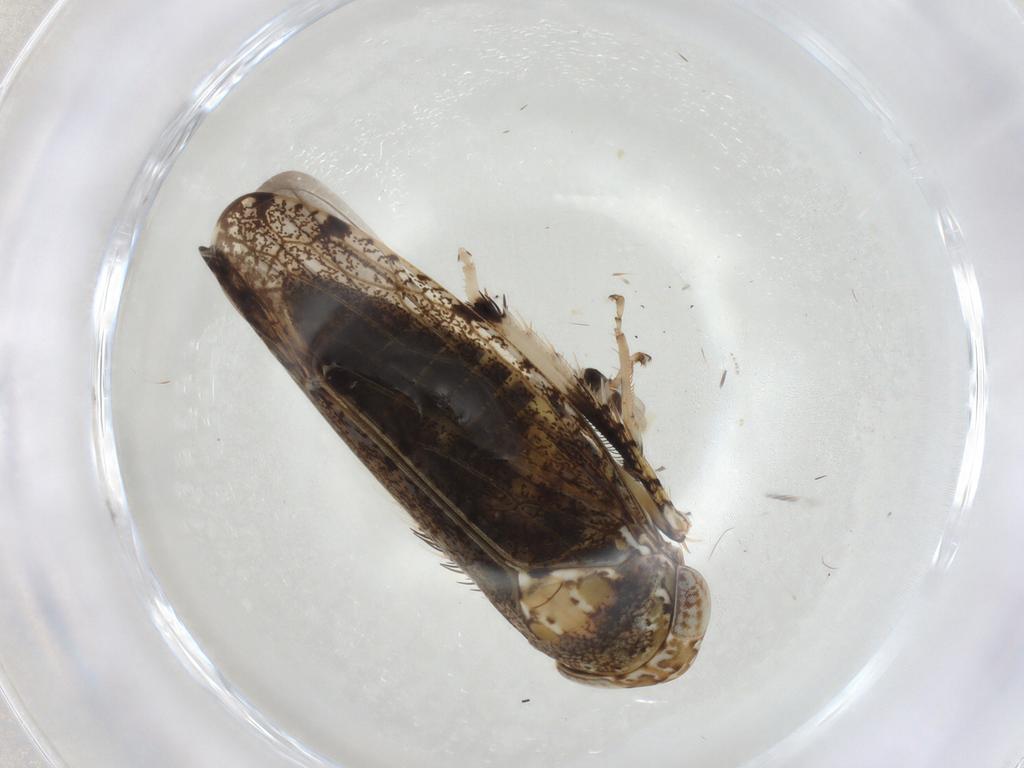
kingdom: Animalia
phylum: Arthropoda
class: Insecta
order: Hemiptera
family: Cicadellidae
